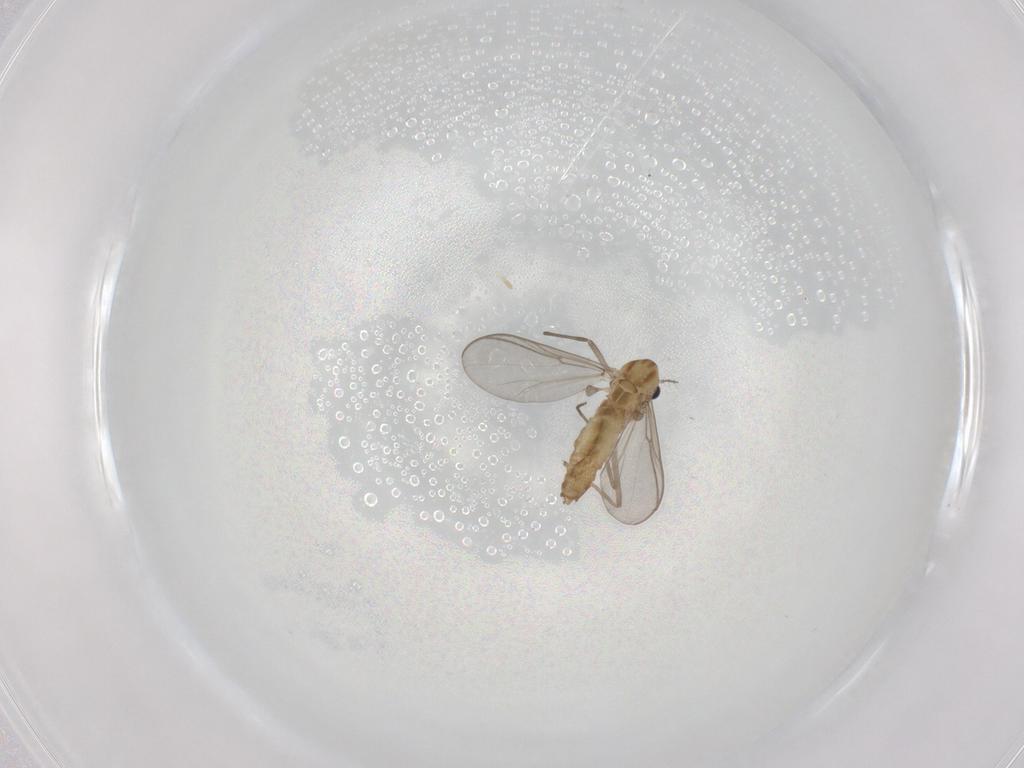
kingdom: Animalia
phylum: Arthropoda
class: Insecta
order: Diptera
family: Chironomidae
